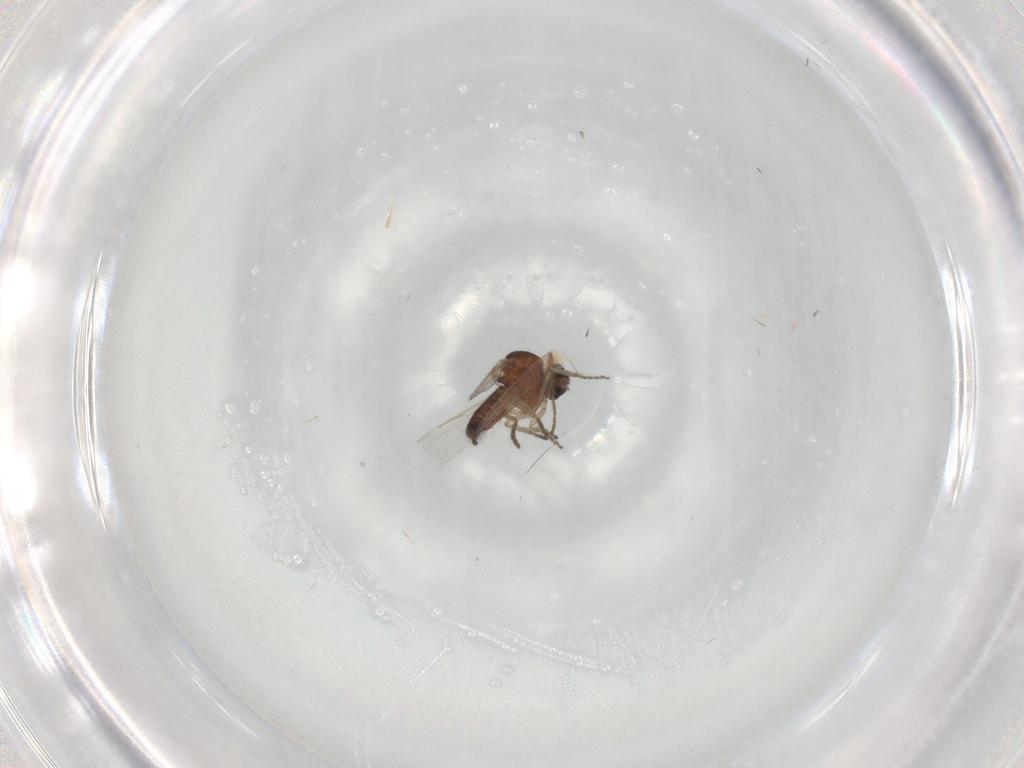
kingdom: Animalia
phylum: Arthropoda
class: Insecta
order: Diptera
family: Ceratopogonidae
